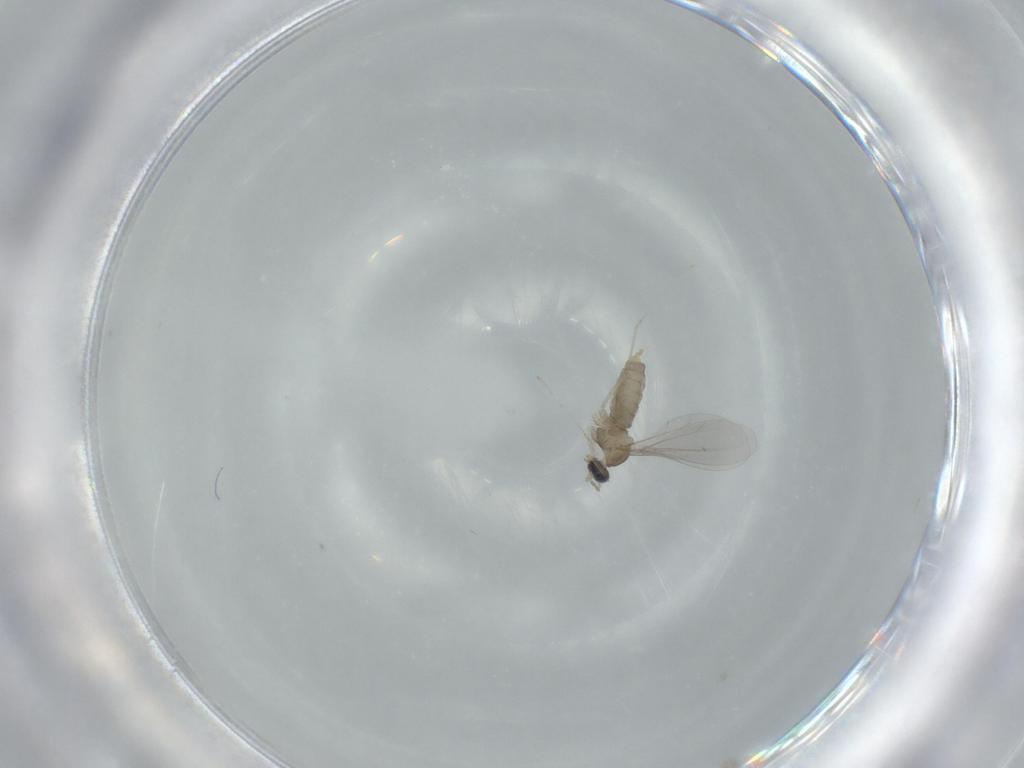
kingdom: Animalia
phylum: Arthropoda
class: Insecta
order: Diptera
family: Cecidomyiidae
